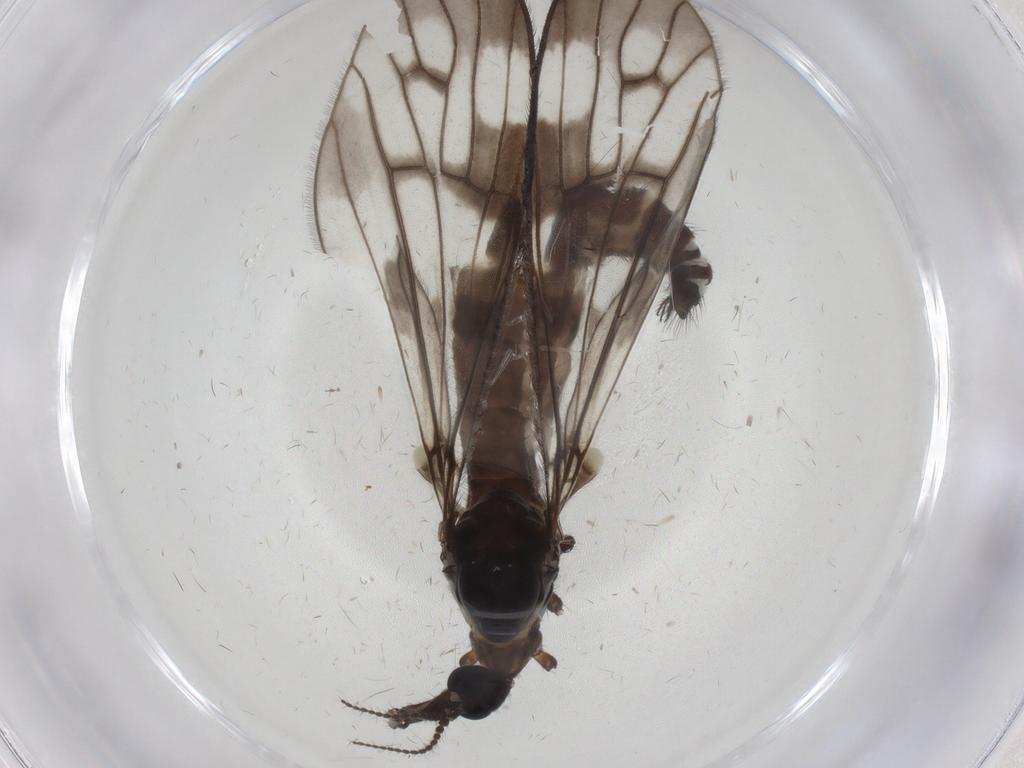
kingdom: Animalia
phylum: Arthropoda
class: Insecta
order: Diptera
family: Limoniidae
